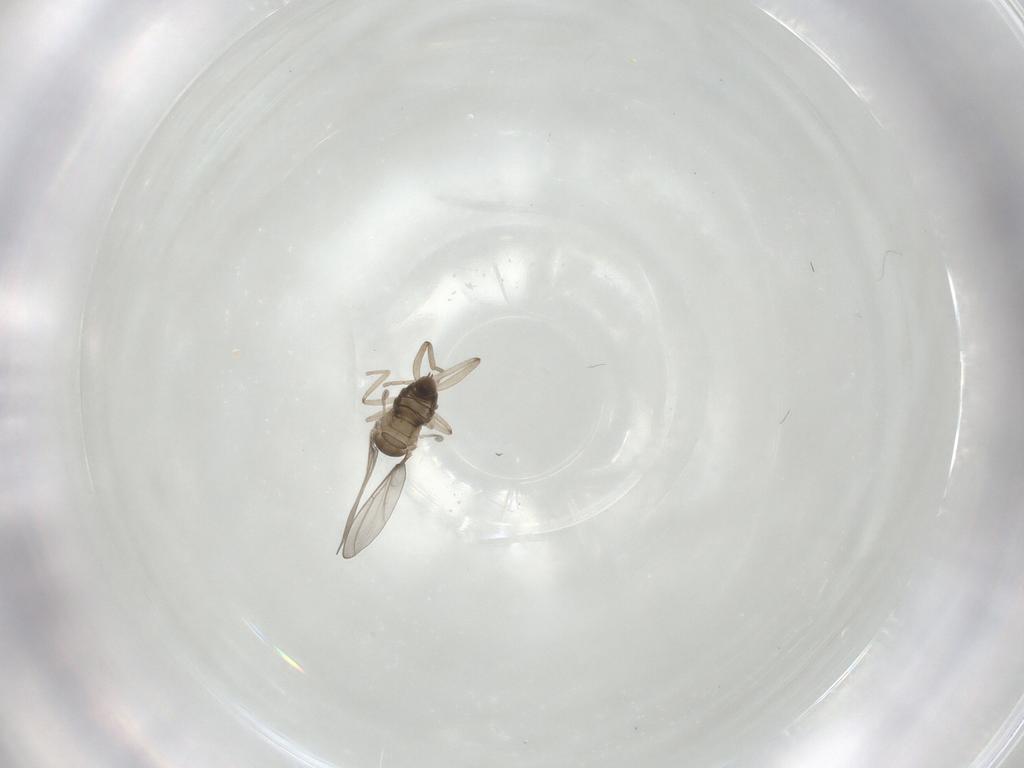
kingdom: Animalia
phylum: Arthropoda
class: Insecta
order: Diptera
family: Cecidomyiidae
